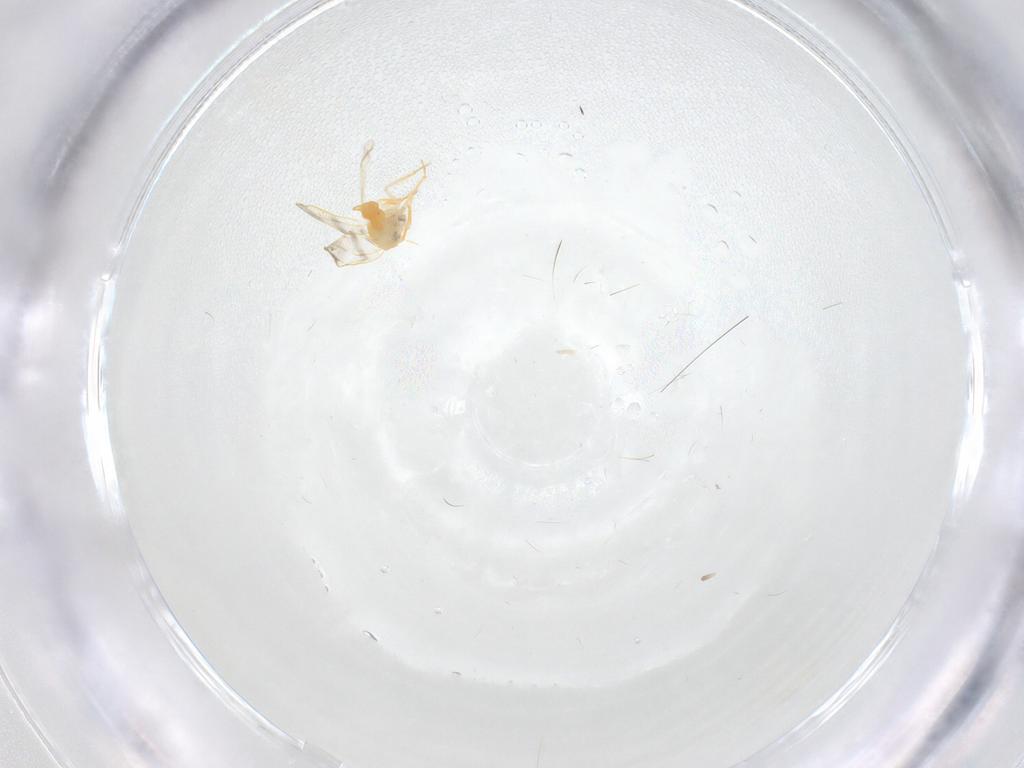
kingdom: Animalia
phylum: Arthropoda
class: Insecta
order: Hemiptera
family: Aleyrodidae
